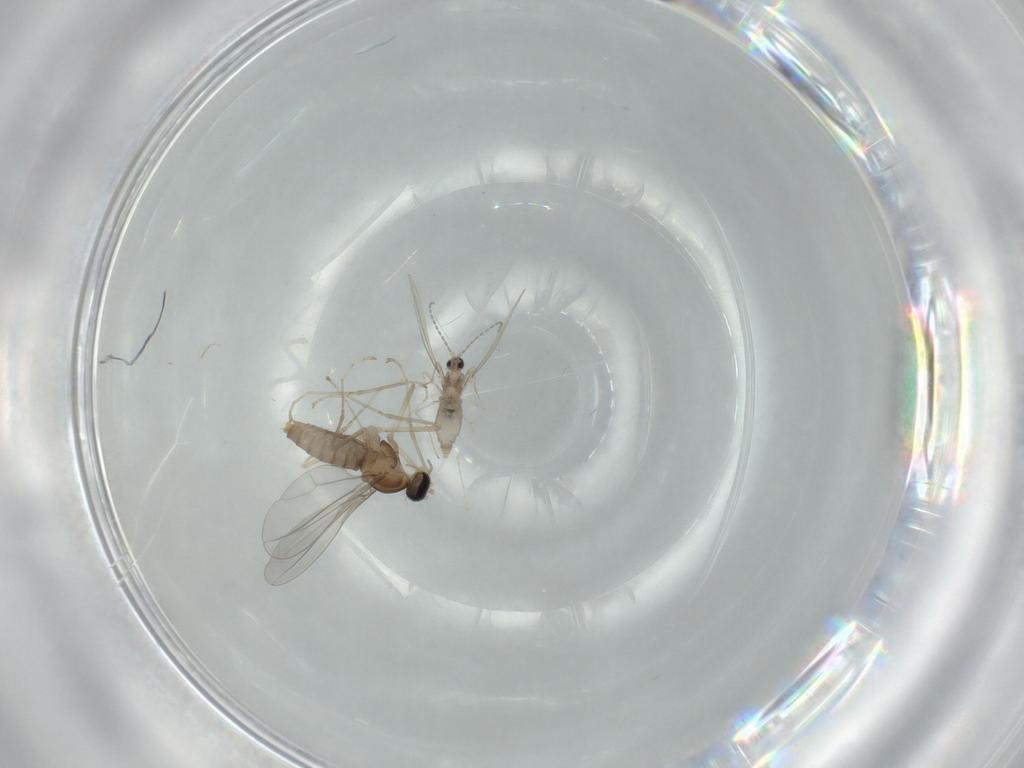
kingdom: Animalia
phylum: Arthropoda
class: Insecta
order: Diptera
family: Cecidomyiidae
